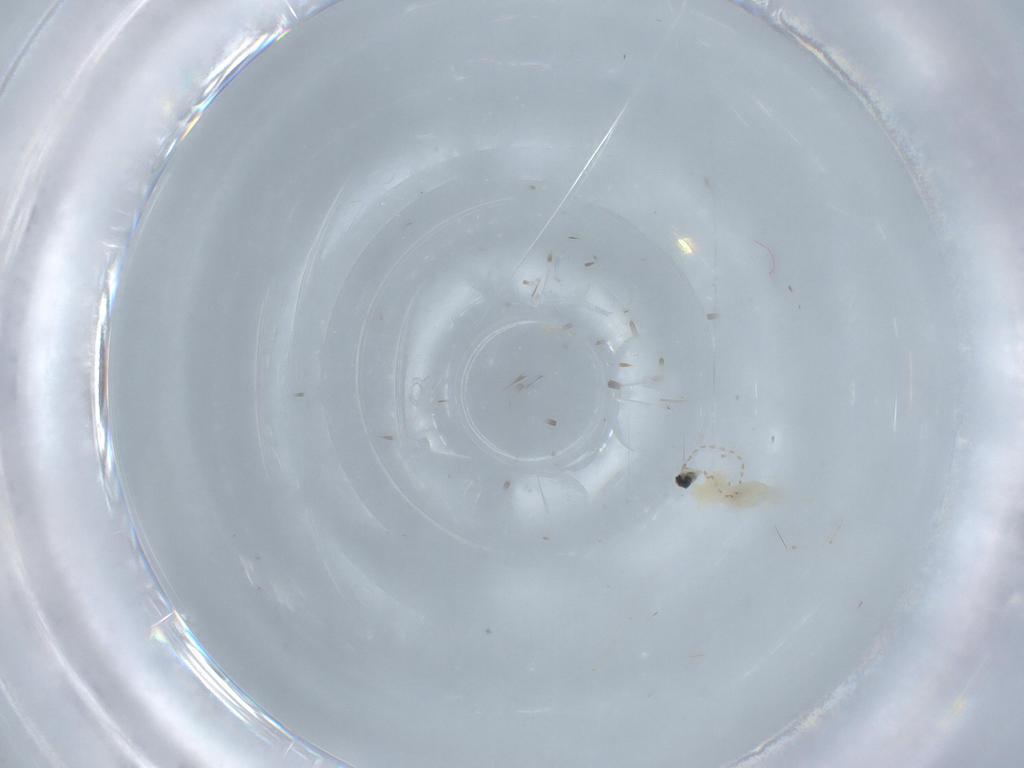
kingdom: Animalia
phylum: Arthropoda
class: Insecta
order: Diptera
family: Cecidomyiidae
